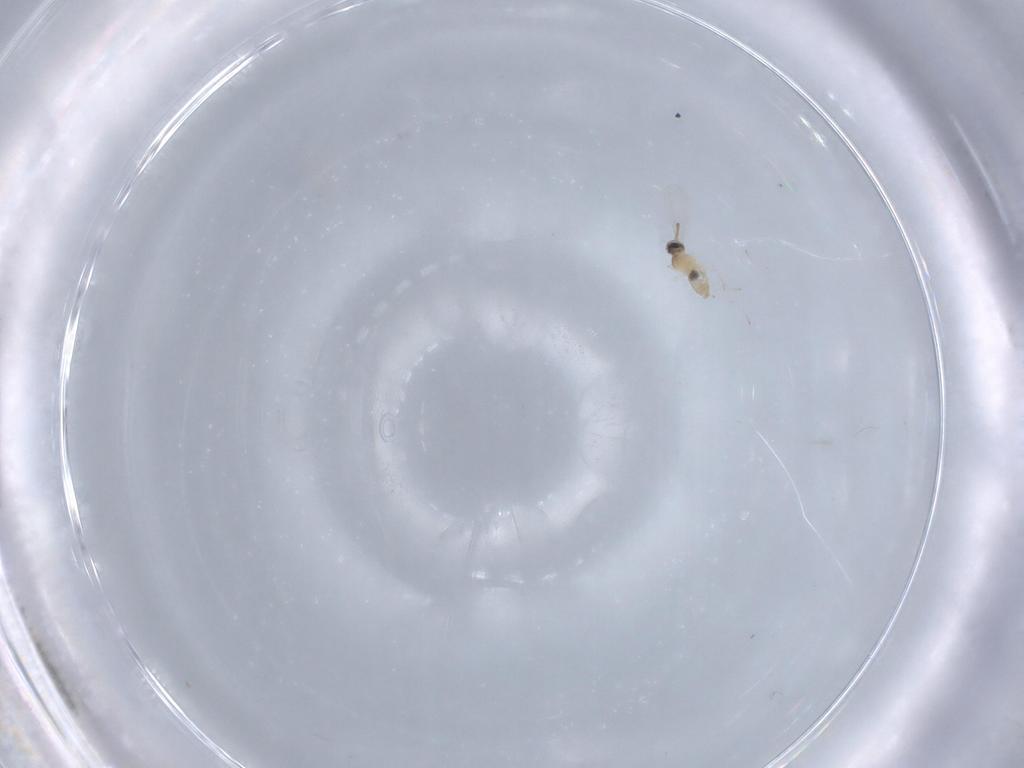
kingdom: Animalia
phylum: Arthropoda
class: Insecta
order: Diptera
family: Cecidomyiidae
